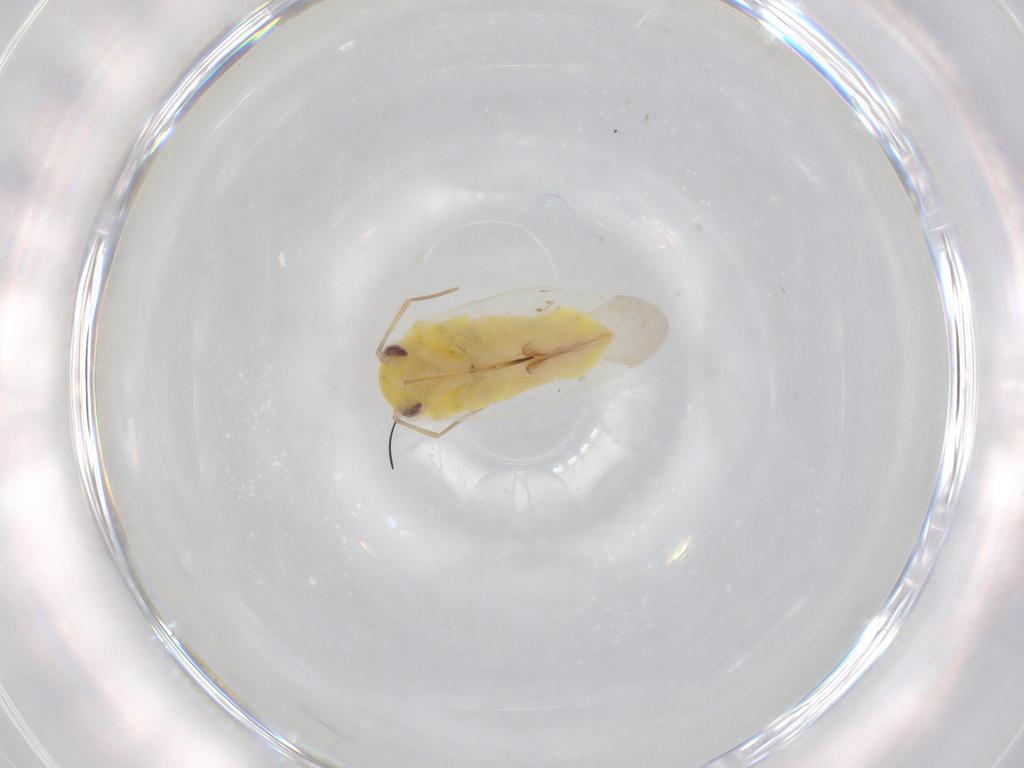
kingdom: Animalia
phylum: Arthropoda
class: Insecta
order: Hemiptera
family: Miridae
